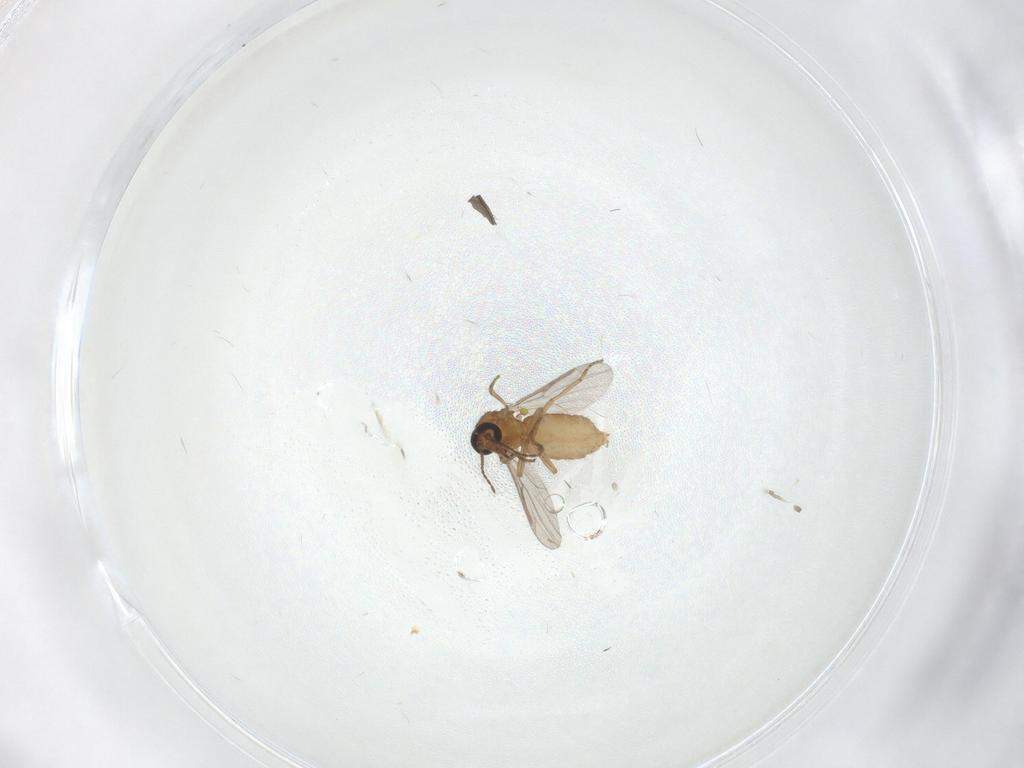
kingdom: Animalia
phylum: Arthropoda
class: Insecta
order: Diptera
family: Ceratopogonidae
